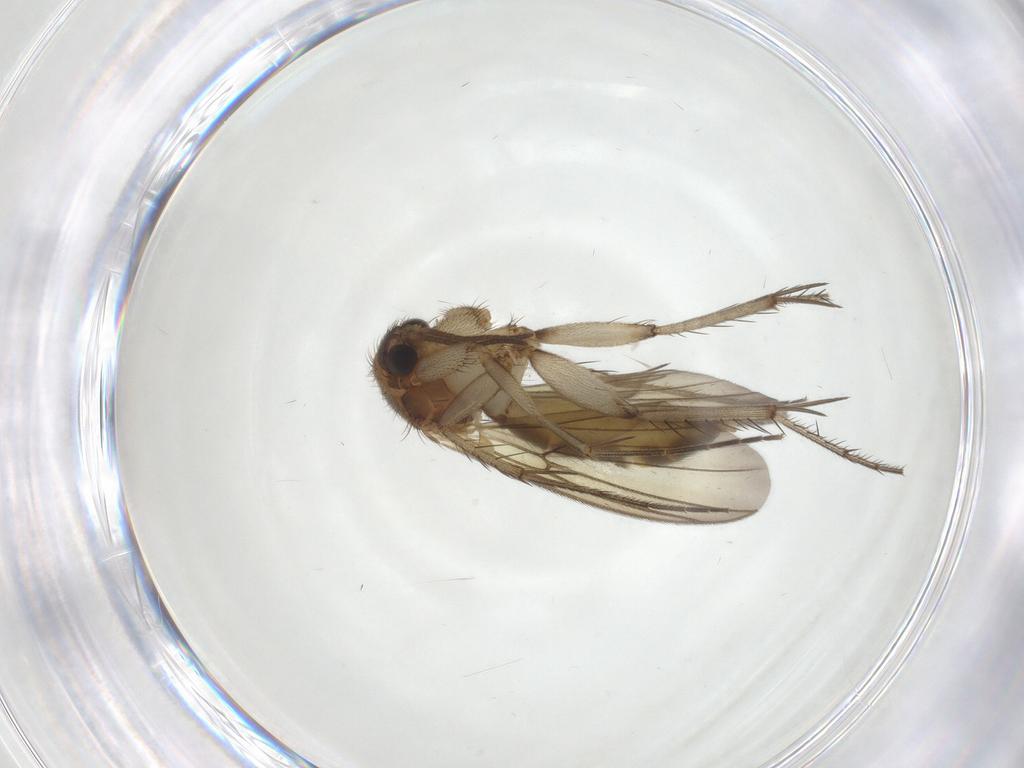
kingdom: Animalia
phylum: Arthropoda
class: Insecta
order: Diptera
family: Mycetophilidae
